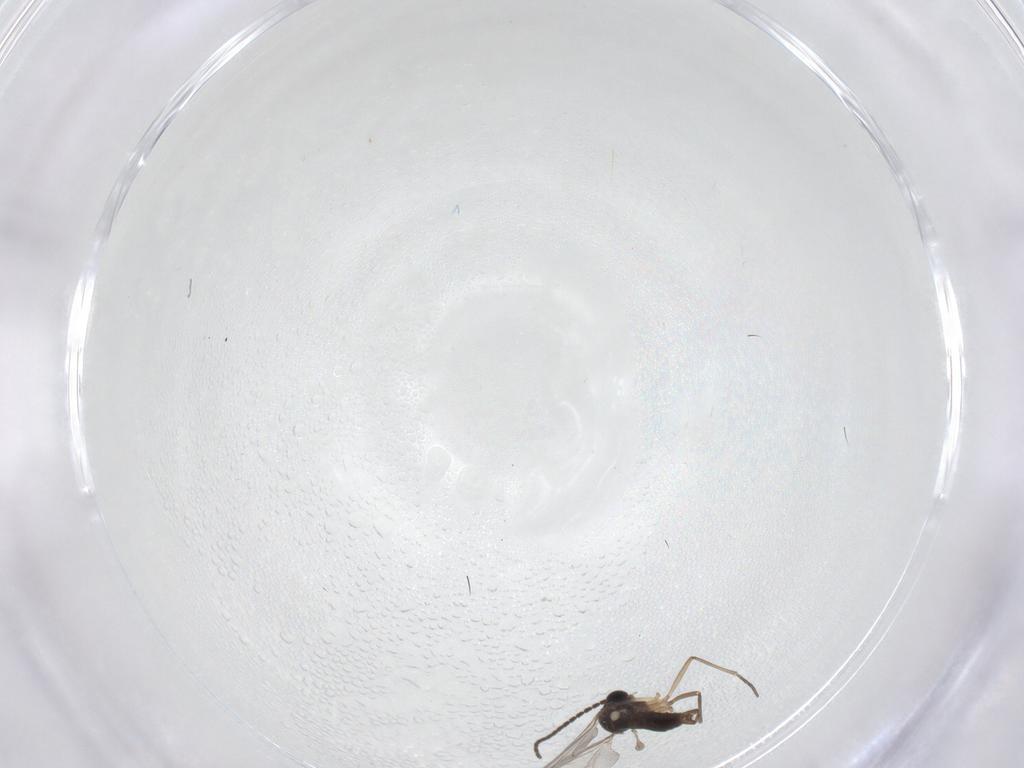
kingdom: Animalia
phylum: Arthropoda
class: Insecta
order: Diptera
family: Sciaridae
